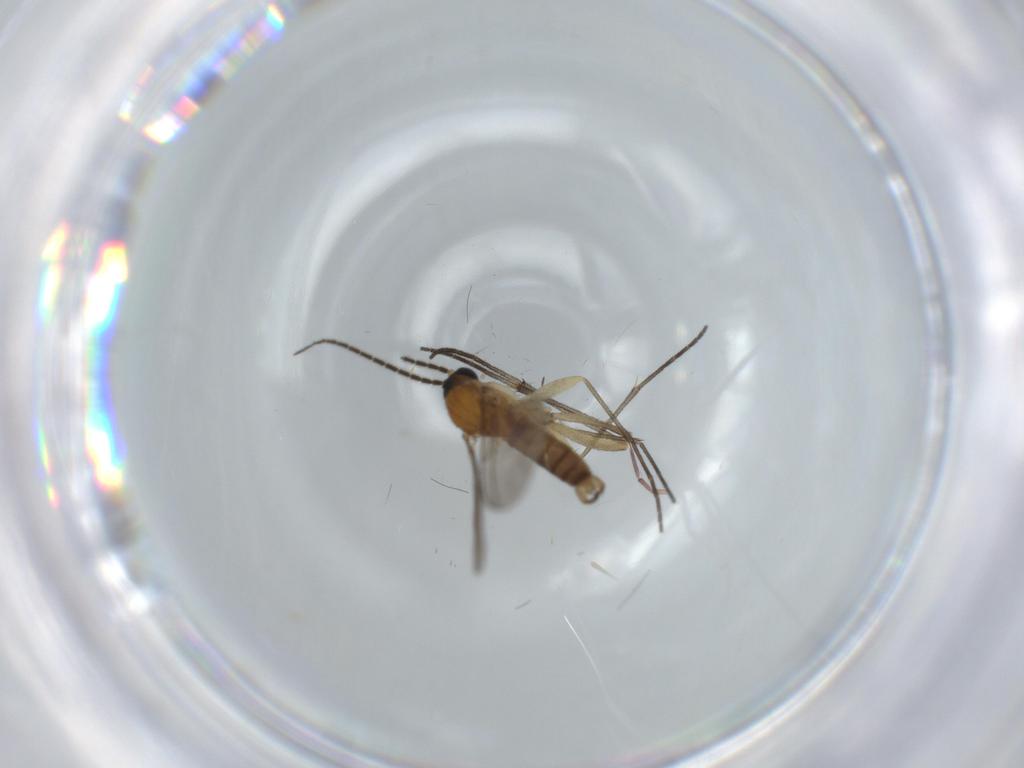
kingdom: Animalia
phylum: Arthropoda
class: Insecta
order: Diptera
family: Sciaridae
